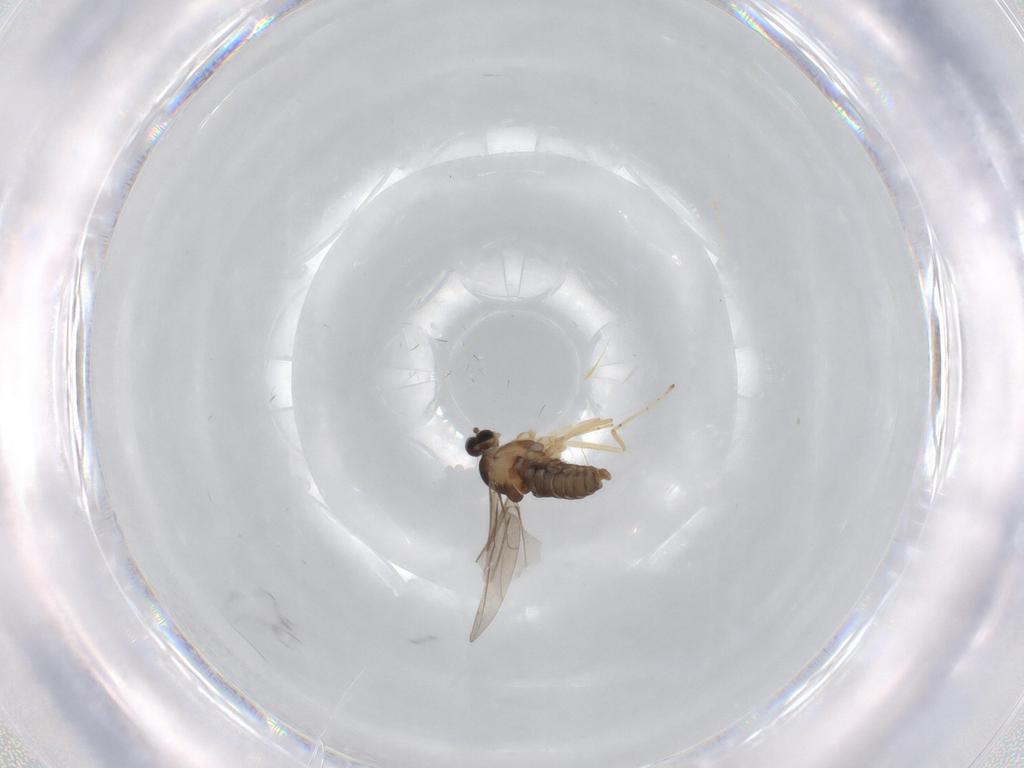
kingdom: Animalia
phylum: Arthropoda
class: Insecta
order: Diptera
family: Cecidomyiidae
